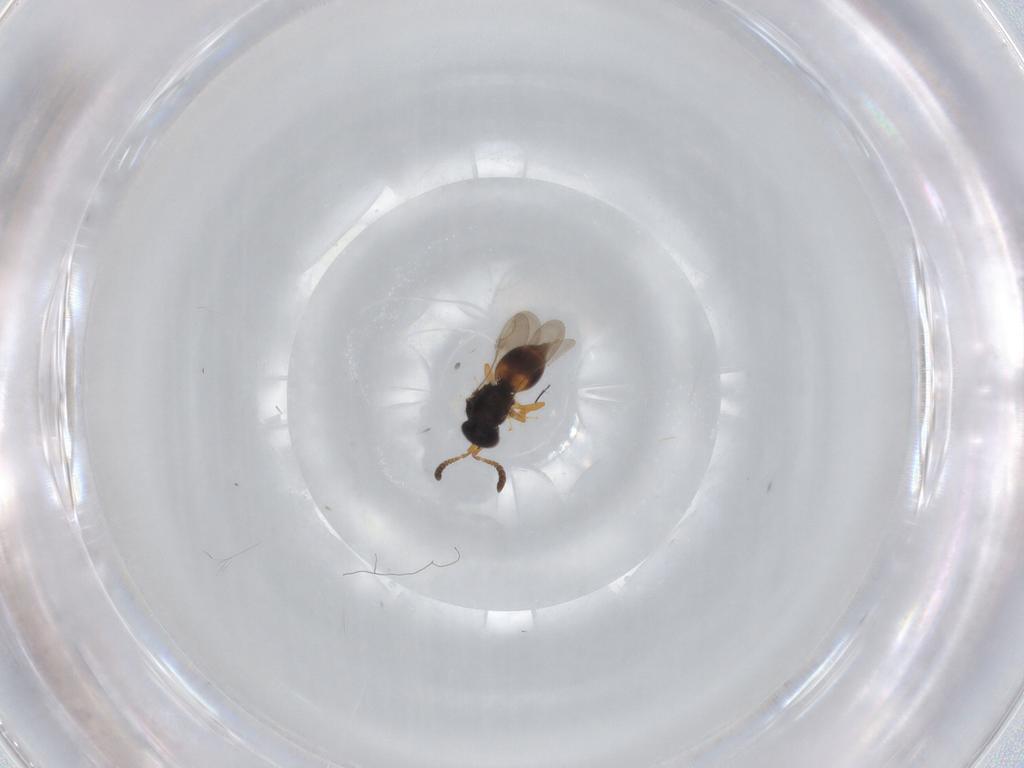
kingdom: Animalia
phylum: Arthropoda
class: Insecta
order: Hymenoptera
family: Braconidae
